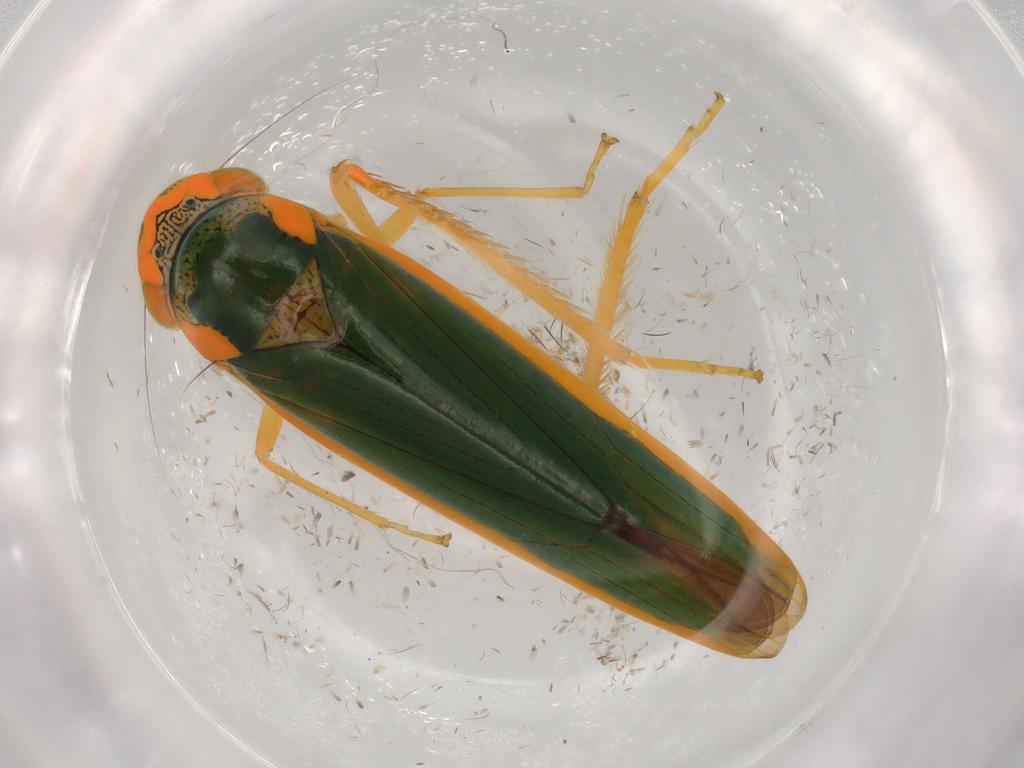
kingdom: Animalia
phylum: Arthropoda
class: Insecta
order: Hemiptera
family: Cicadellidae
